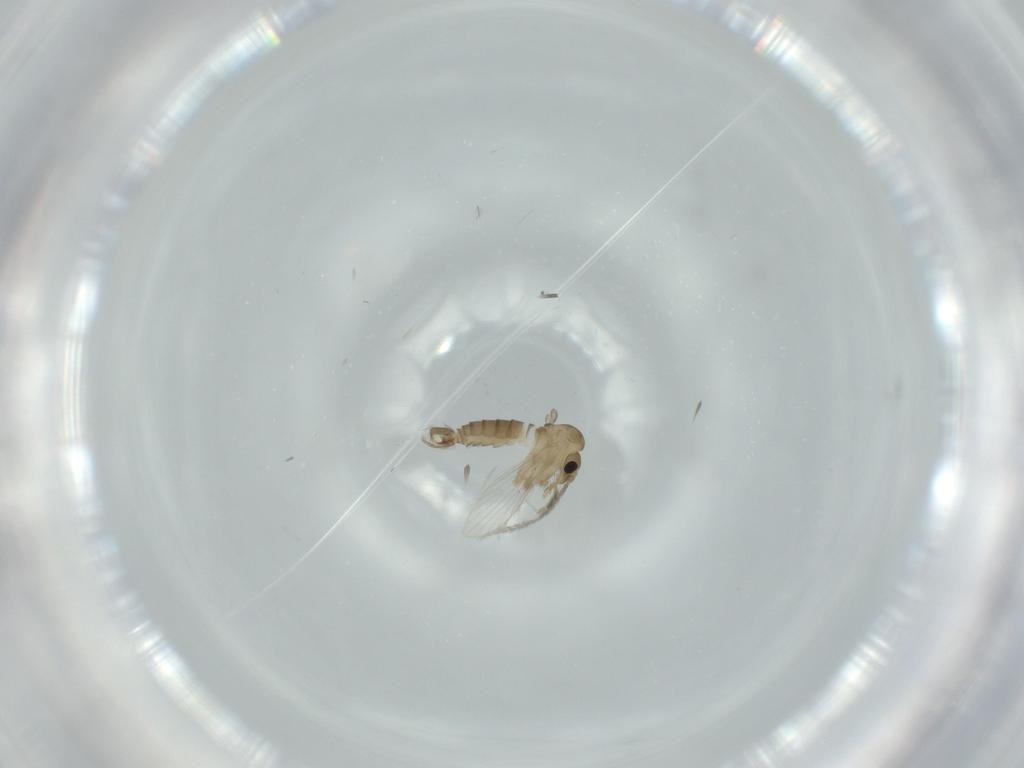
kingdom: Animalia
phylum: Arthropoda
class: Insecta
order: Diptera
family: Psychodidae
